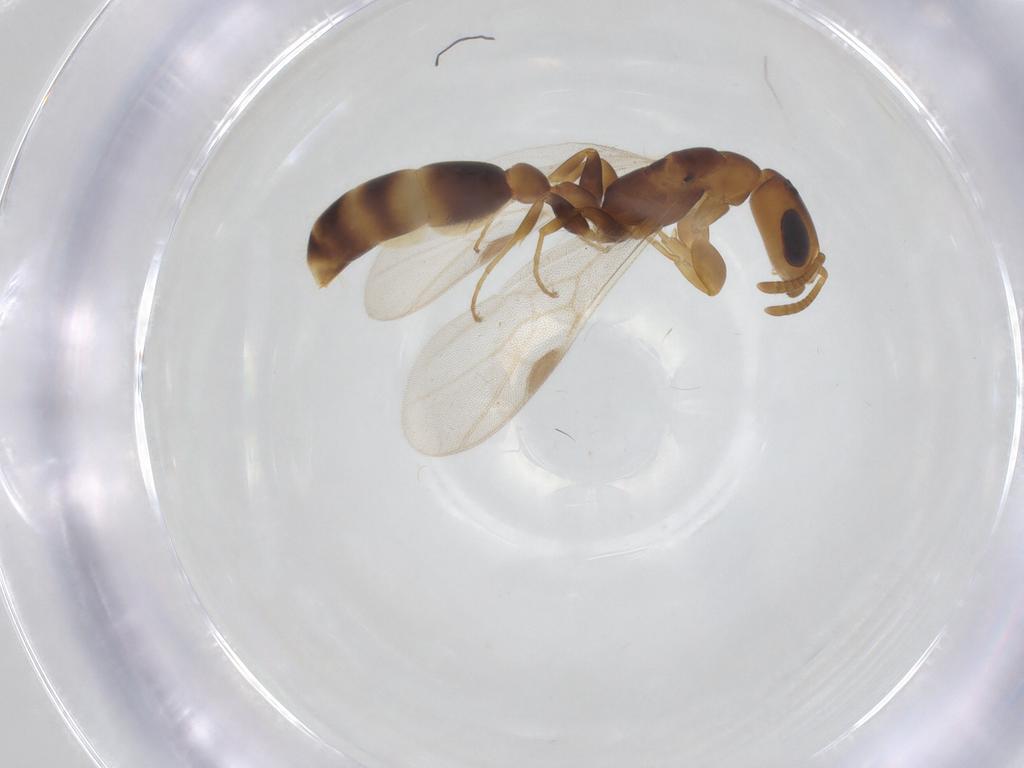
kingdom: Animalia
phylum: Arthropoda
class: Insecta
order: Hymenoptera
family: Formicidae
